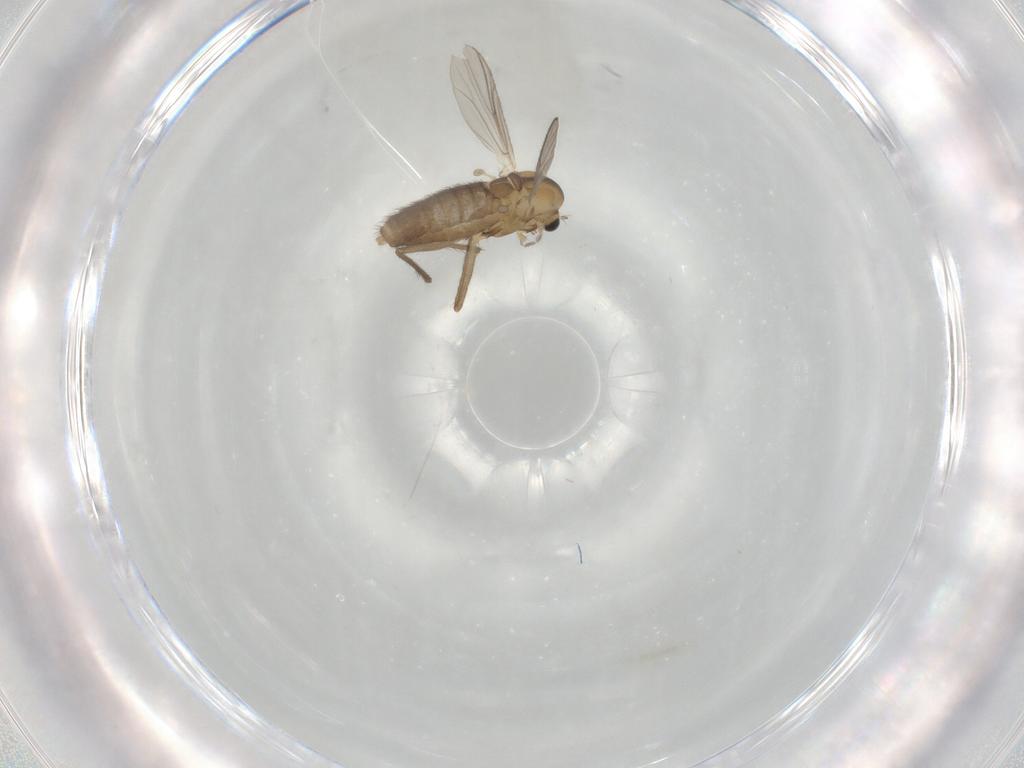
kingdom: Animalia
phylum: Arthropoda
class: Insecta
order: Diptera
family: Chironomidae
